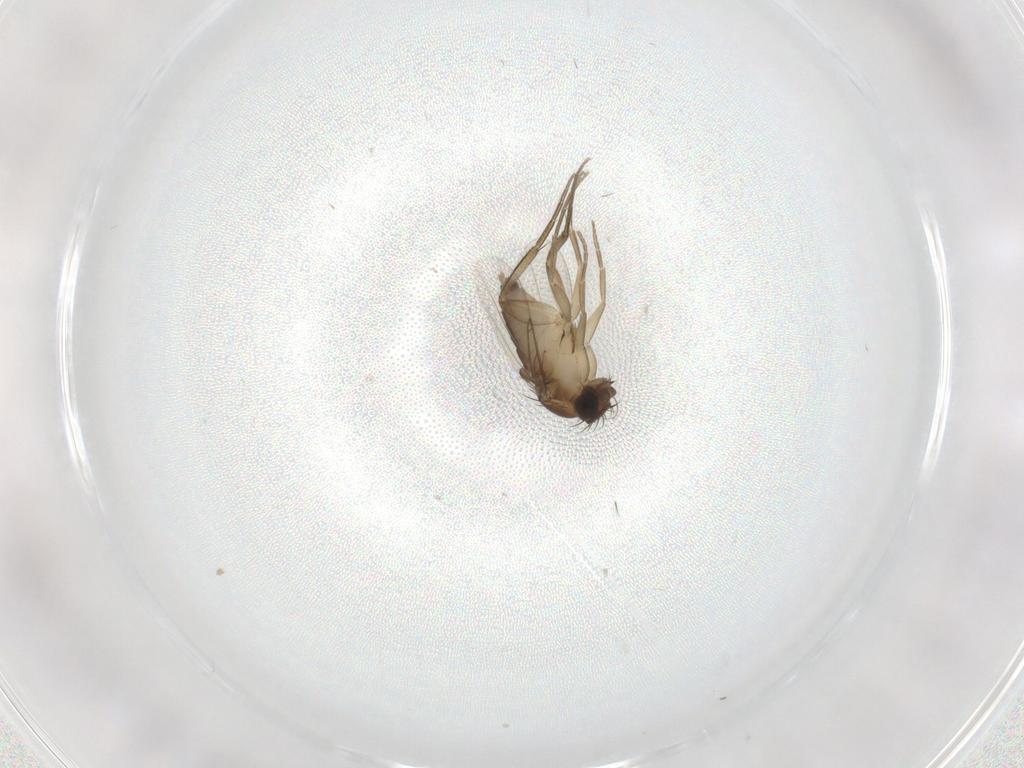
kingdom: Animalia
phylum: Arthropoda
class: Insecta
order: Diptera
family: Phoridae
